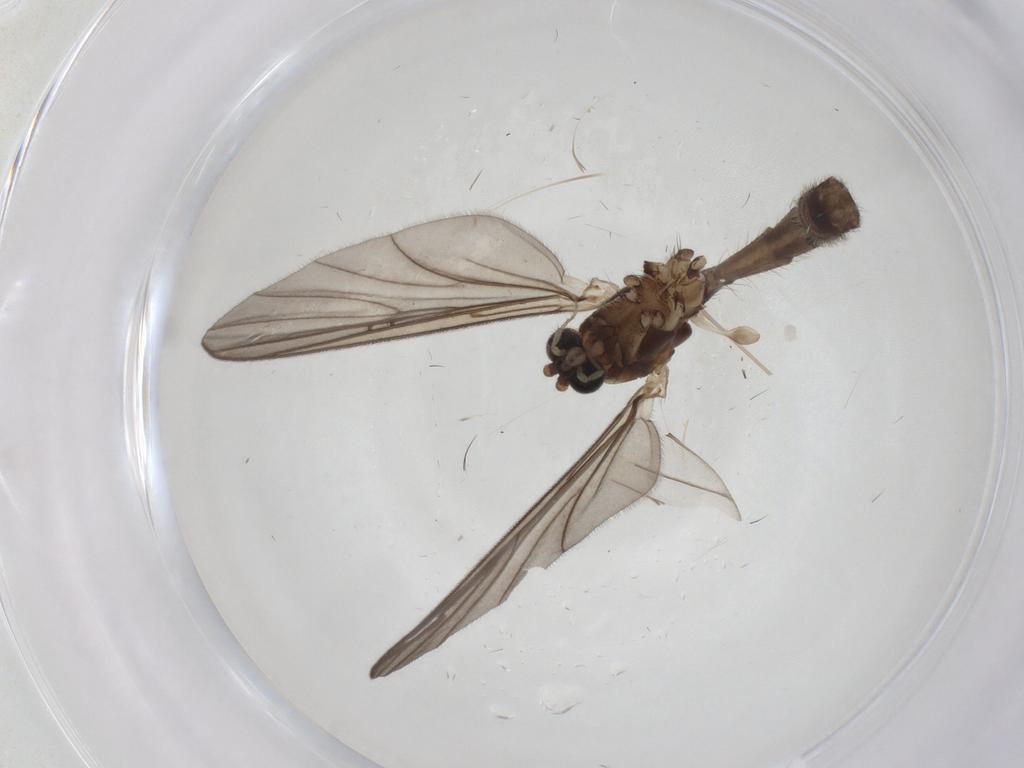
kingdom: Animalia
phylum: Arthropoda
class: Insecta
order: Diptera
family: Mycetophilidae
